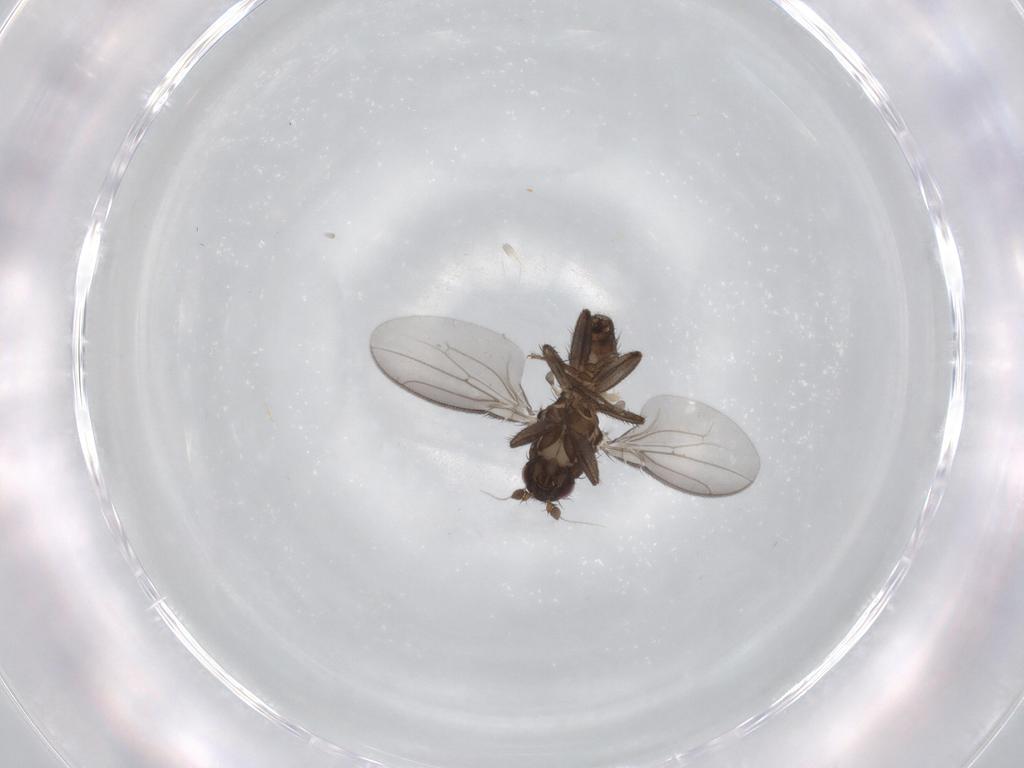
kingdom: Animalia
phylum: Arthropoda
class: Insecta
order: Diptera
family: Sphaeroceridae
